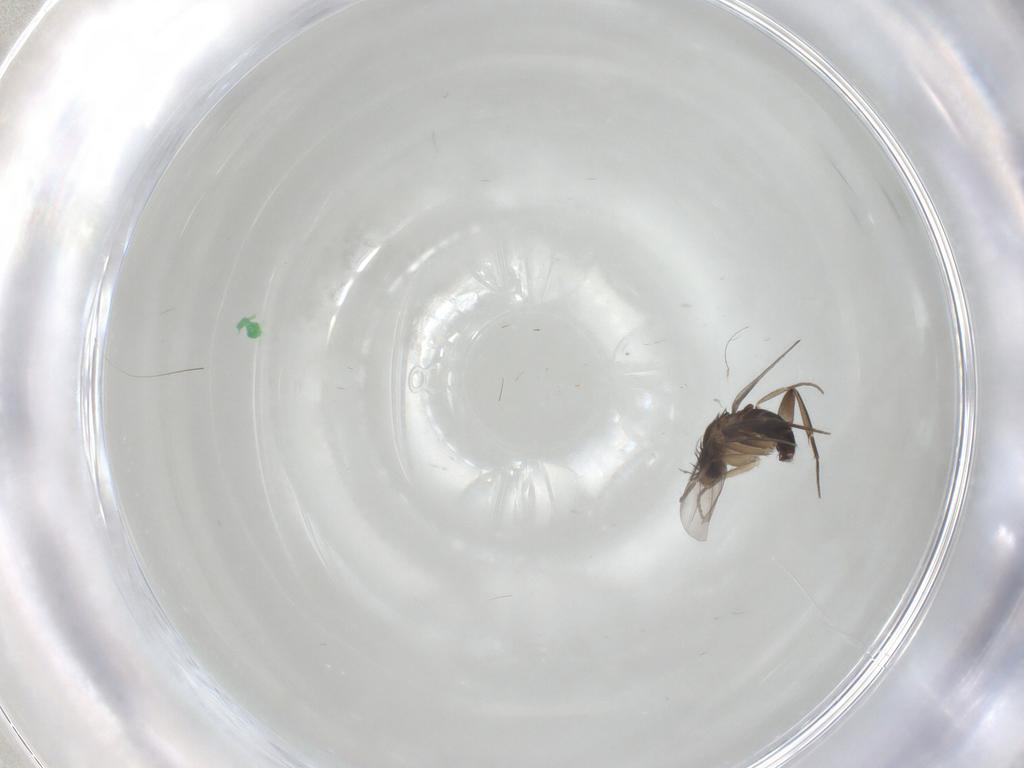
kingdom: Animalia
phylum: Arthropoda
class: Insecta
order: Diptera
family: Phoridae
